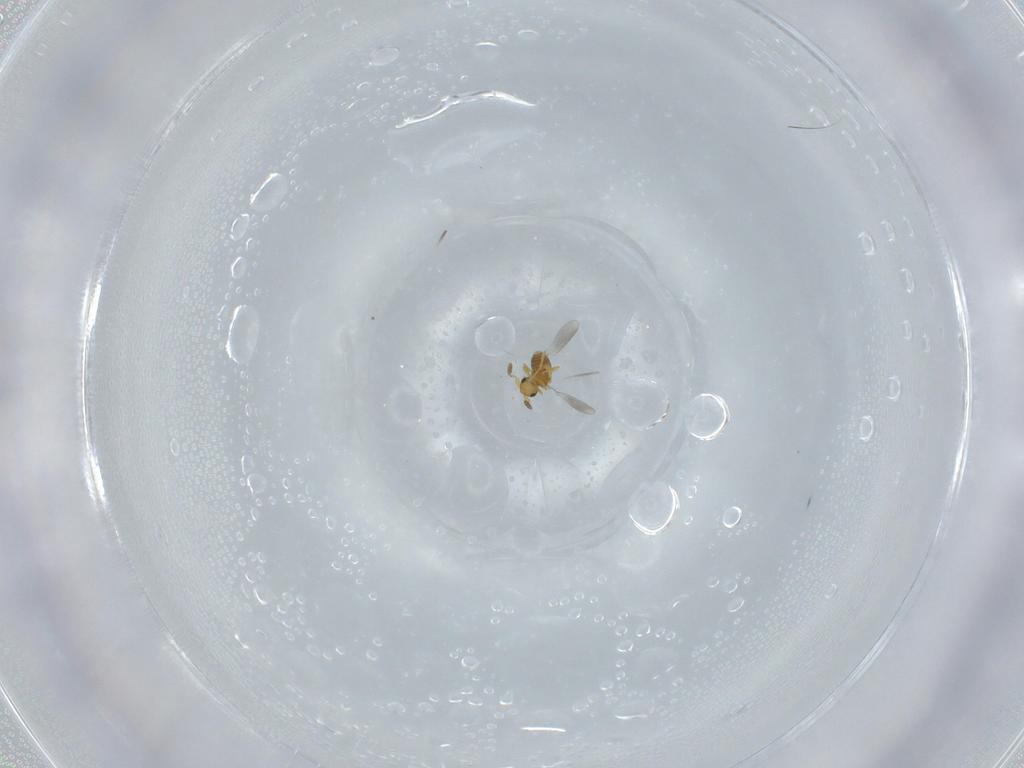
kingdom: Animalia
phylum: Arthropoda
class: Insecta
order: Hymenoptera
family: Platygastridae
